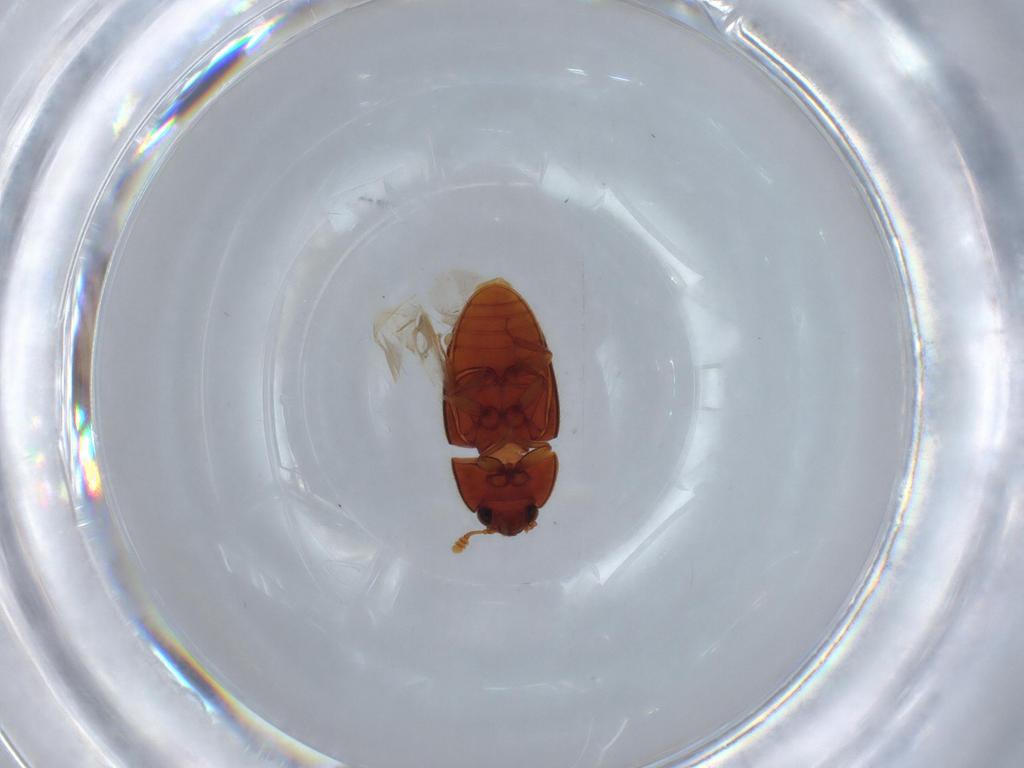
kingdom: Animalia
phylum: Arthropoda
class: Insecta
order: Coleoptera
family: Biphyllidae
